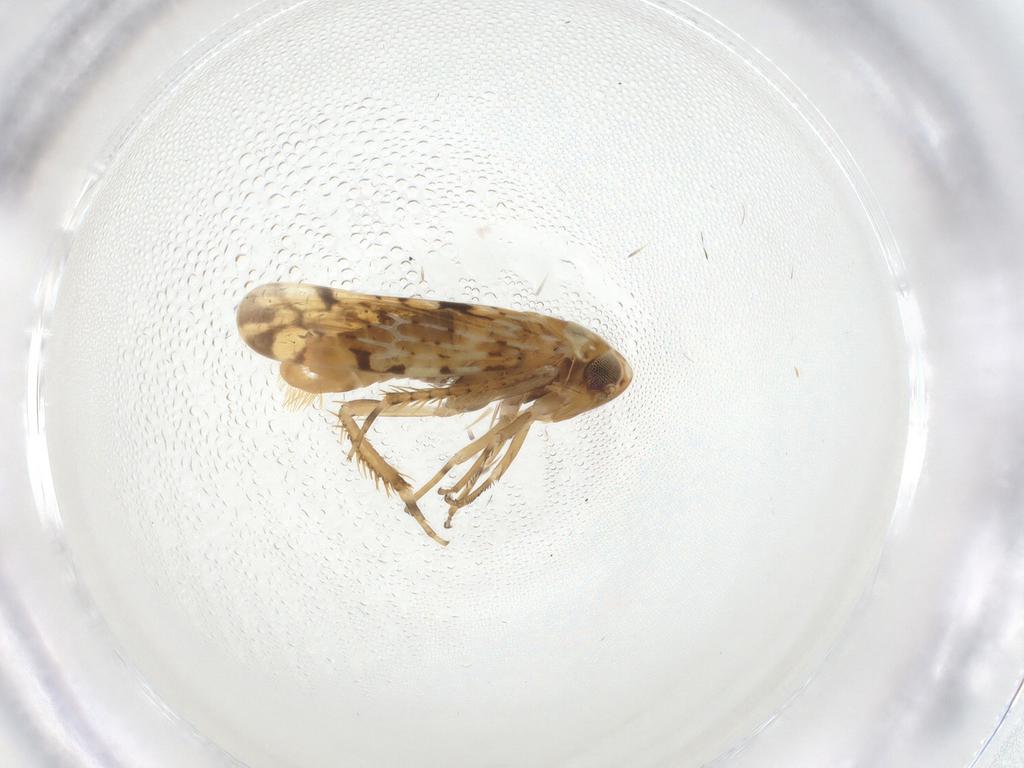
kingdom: Animalia
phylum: Arthropoda
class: Insecta
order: Hemiptera
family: Cicadellidae
